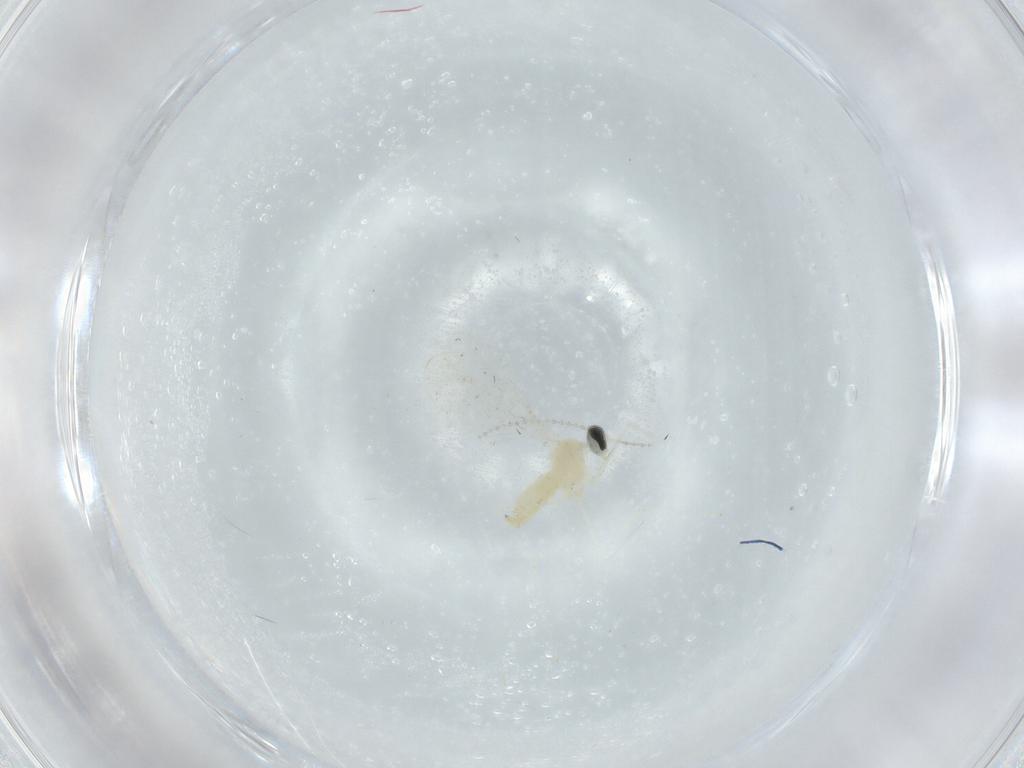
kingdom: Animalia
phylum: Arthropoda
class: Insecta
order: Diptera
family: Cecidomyiidae
